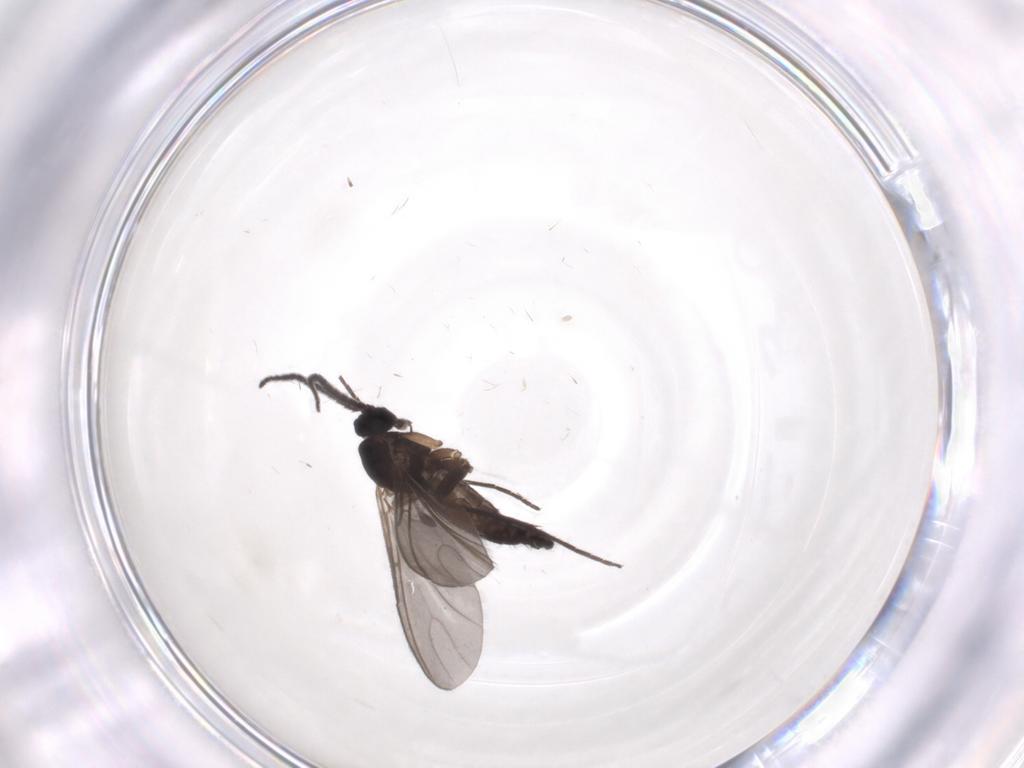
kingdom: Animalia
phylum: Arthropoda
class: Insecta
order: Diptera
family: Sciaridae
